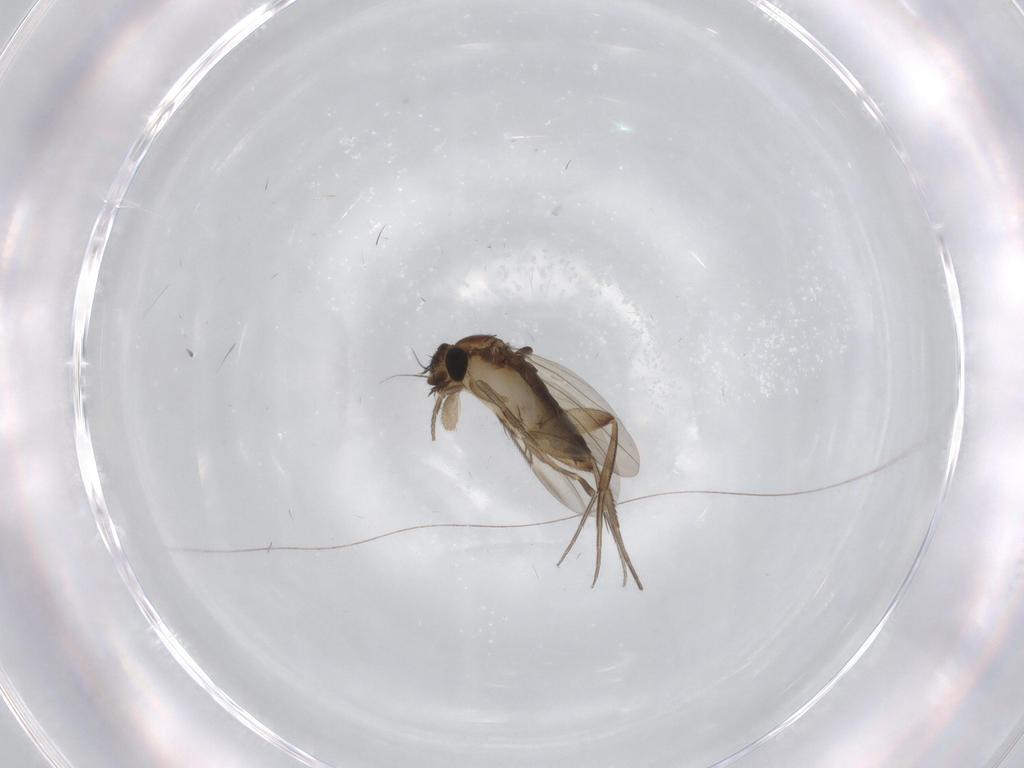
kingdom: Animalia
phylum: Arthropoda
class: Insecta
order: Diptera
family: Phoridae
